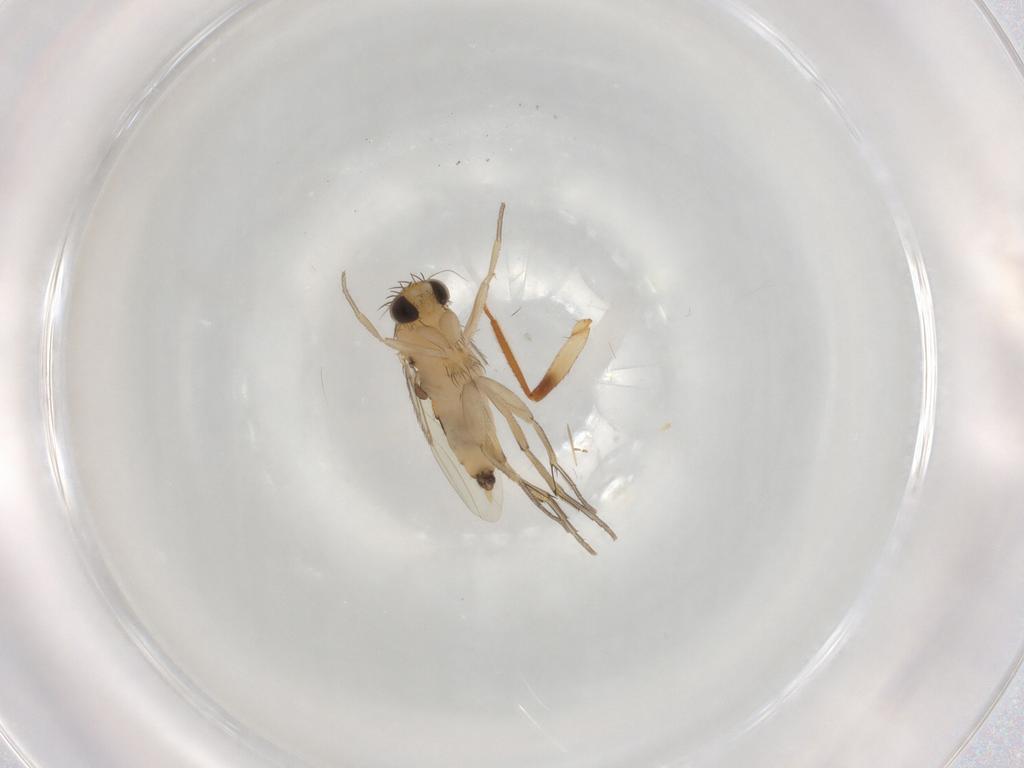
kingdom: Animalia
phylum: Arthropoda
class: Insecta
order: Diptera
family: Phoridae
